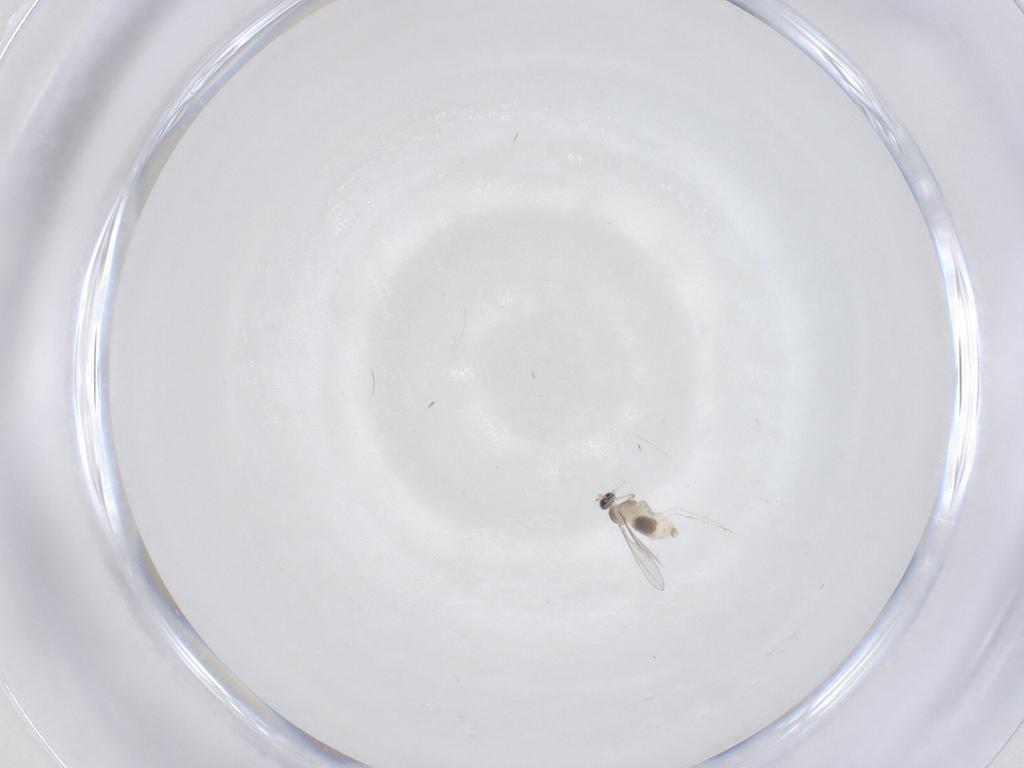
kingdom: Animalia
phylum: Arthropoda
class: Insecta
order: Diptera
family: Cecidomyiidae
